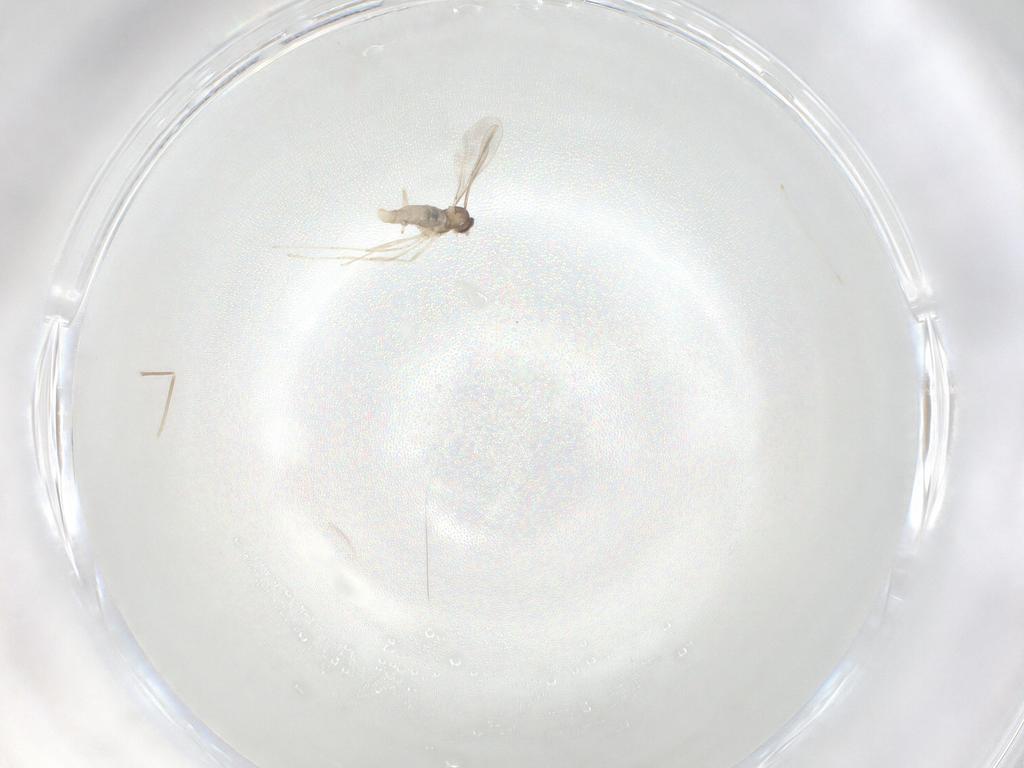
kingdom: Animalia
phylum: Arthropoda
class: Insecta
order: Diptera
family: Cecidomyiidae
